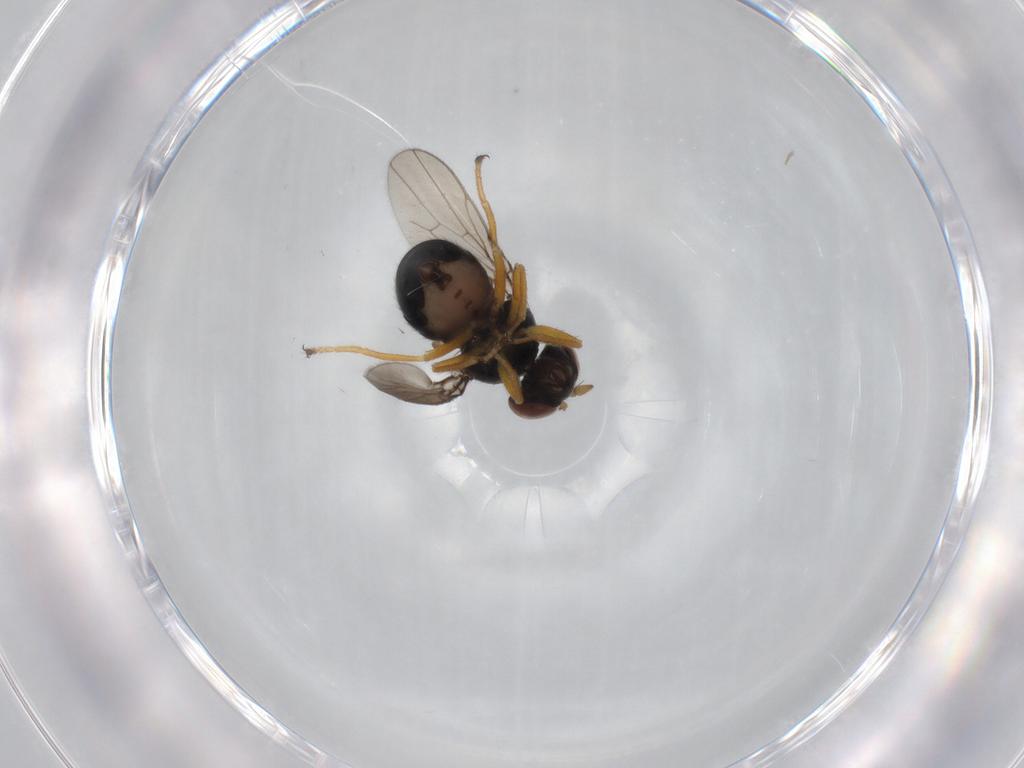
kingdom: Animalia
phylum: Arthropoda
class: Insecta
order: Diptera
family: Ephydridae
